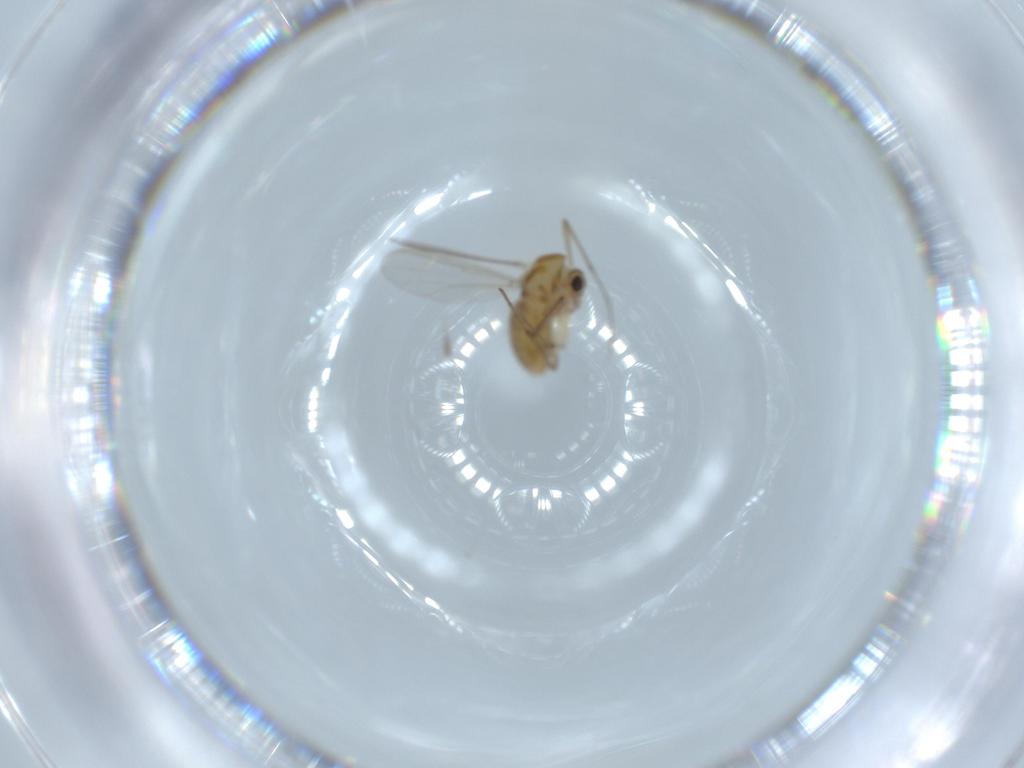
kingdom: Animalia
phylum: Arthropoda
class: Insecta
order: Diptera
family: Chironomidae
